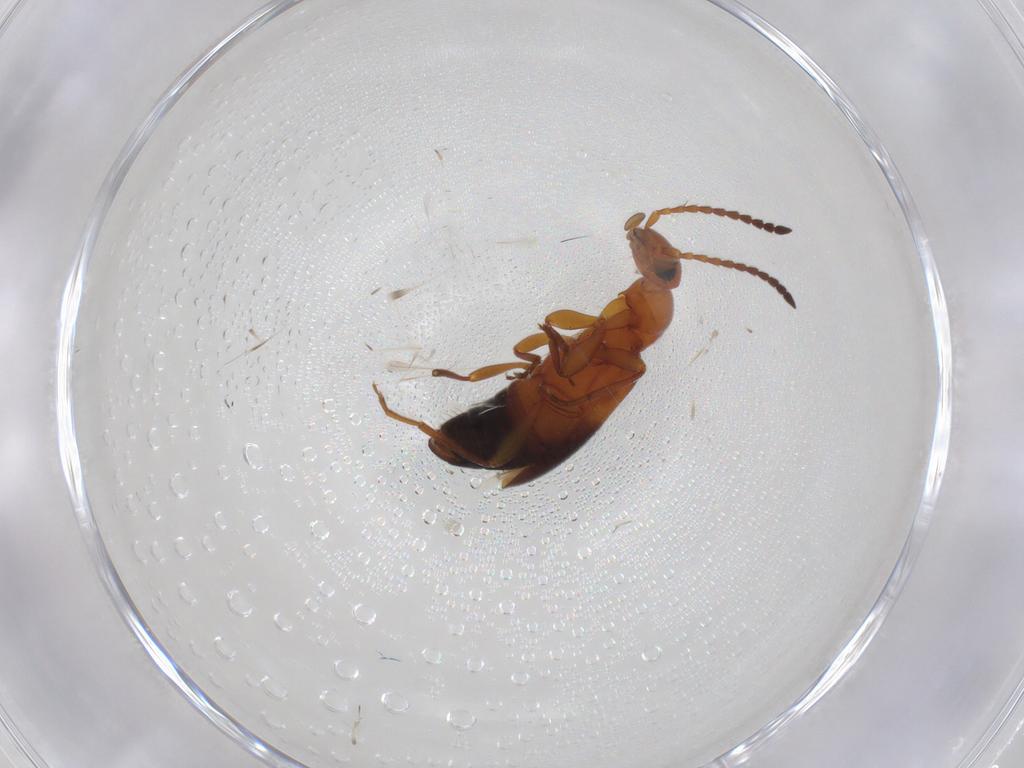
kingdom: Animalia
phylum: Arthropoda
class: Insecta
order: Coleoptera
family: Anthicidae
